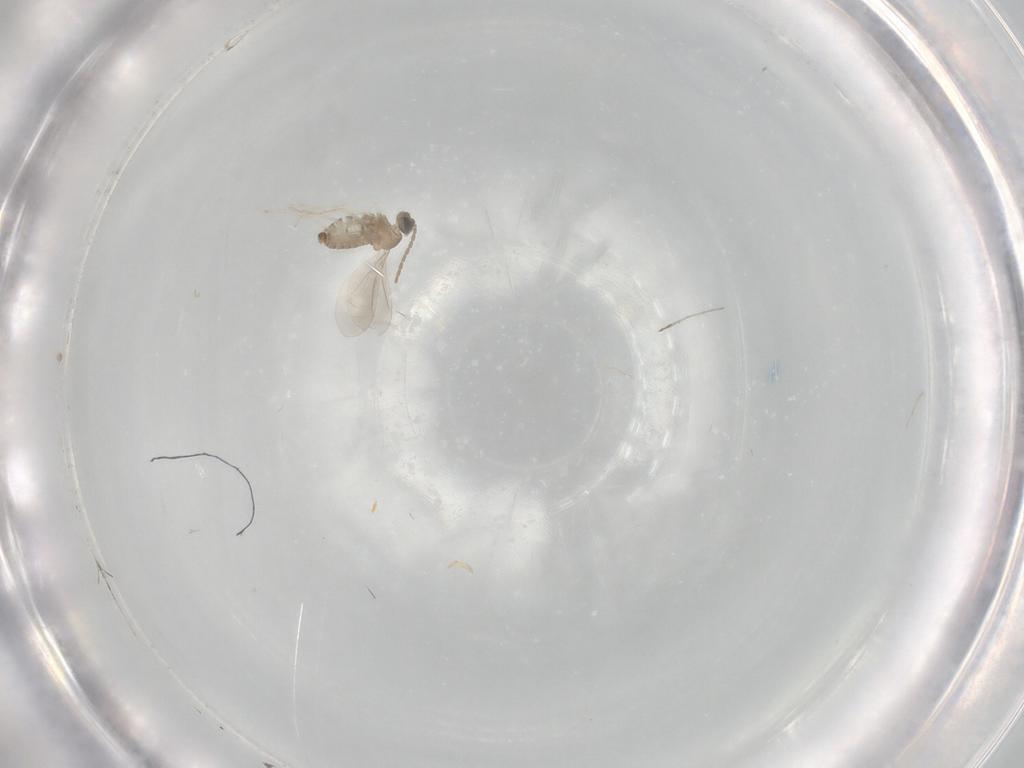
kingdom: Animalia
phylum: Arthropoda
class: Insecta
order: Diptera
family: Cecidomyiidae
